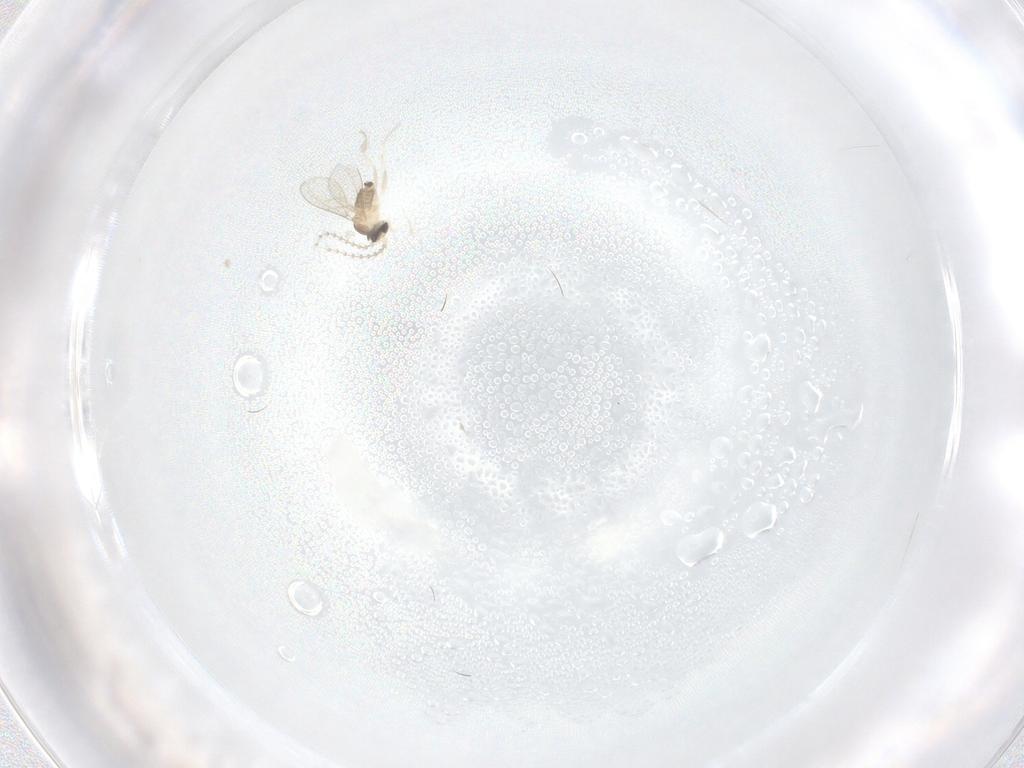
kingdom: Animalia
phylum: Arthropoda
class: Insecta
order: Diptera
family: Cecidomyiidae
